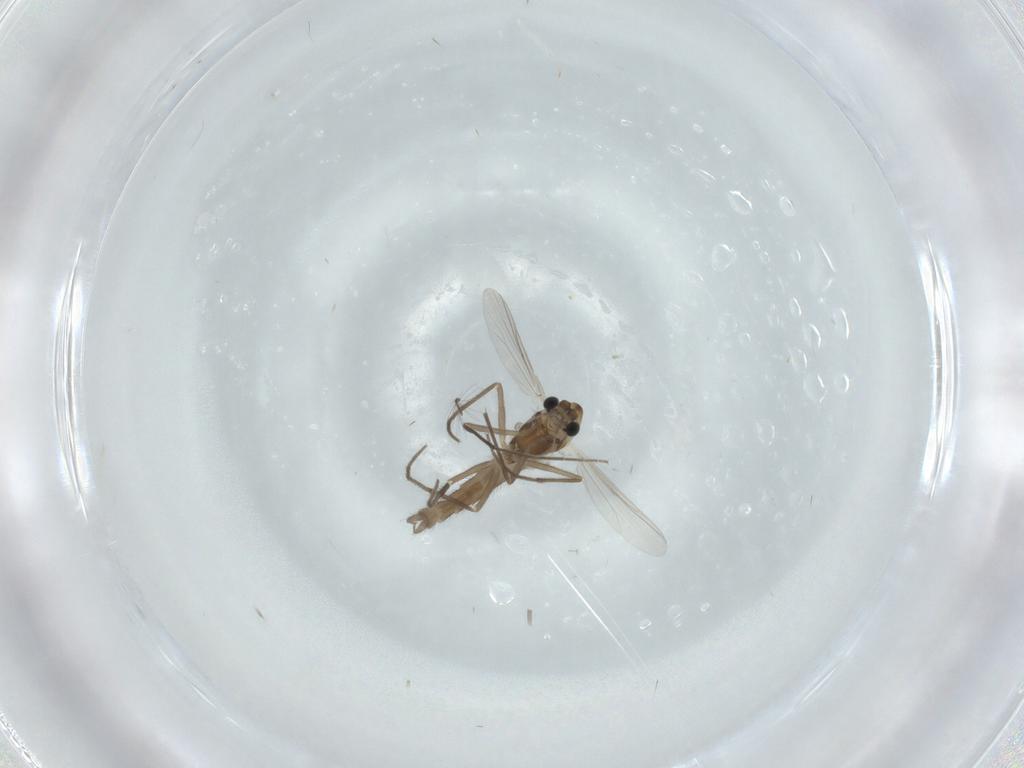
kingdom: Animalia
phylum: Arthropoda
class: Insecta
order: Diptera
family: Chironomidae
